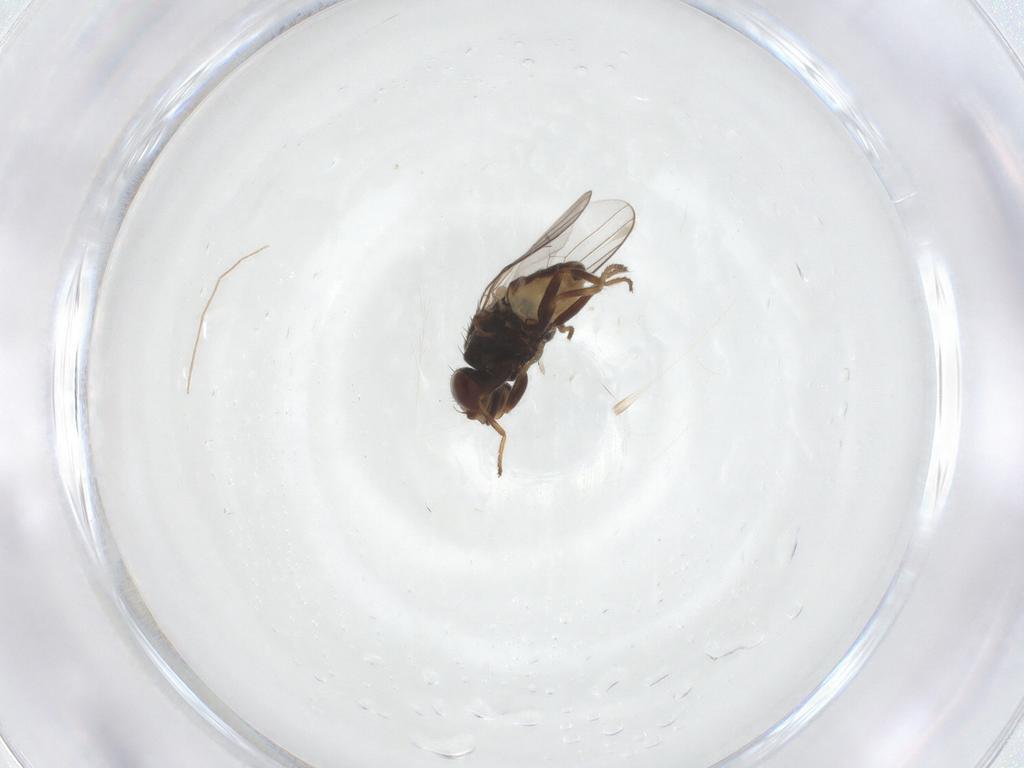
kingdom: Animalia
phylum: Arthropoda
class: Insecta
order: Diptera
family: Chloropidae
